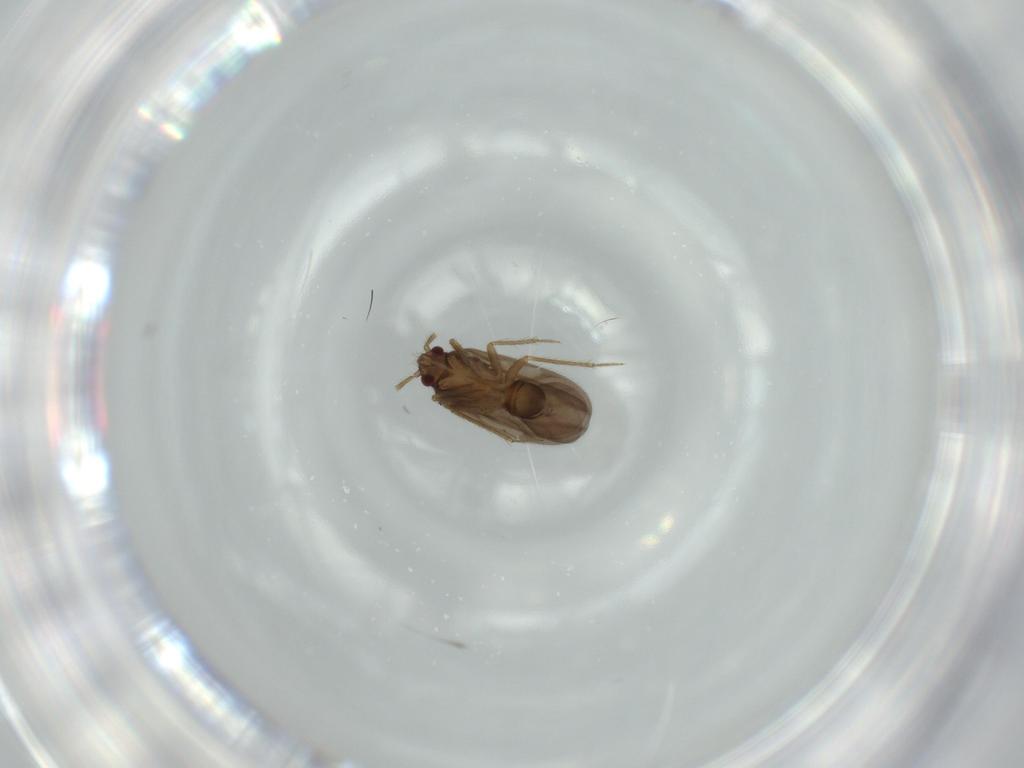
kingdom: Animalia
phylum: Arthropoda
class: Insecta
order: Hemiptera
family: Ceratocombidae
